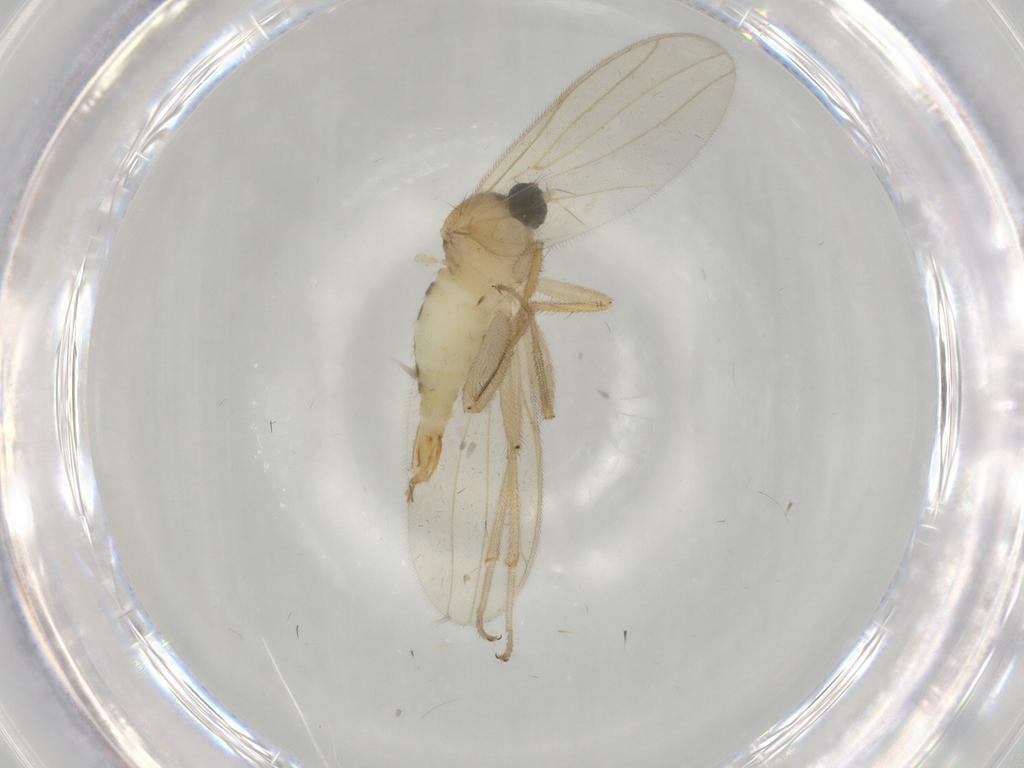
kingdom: Animalia
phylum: Arthropoda
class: Insecta
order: Diptera
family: Hybotidae
